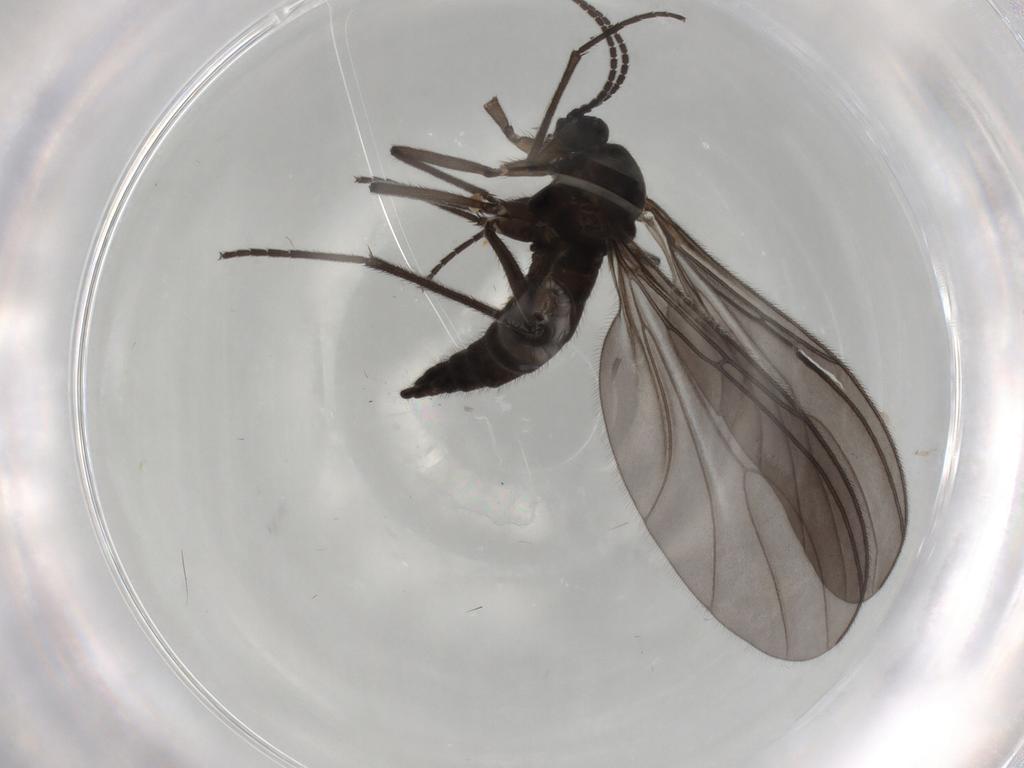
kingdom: Animalia
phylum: Arthropoda
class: Insecta
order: Diptera
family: Sciaridae
